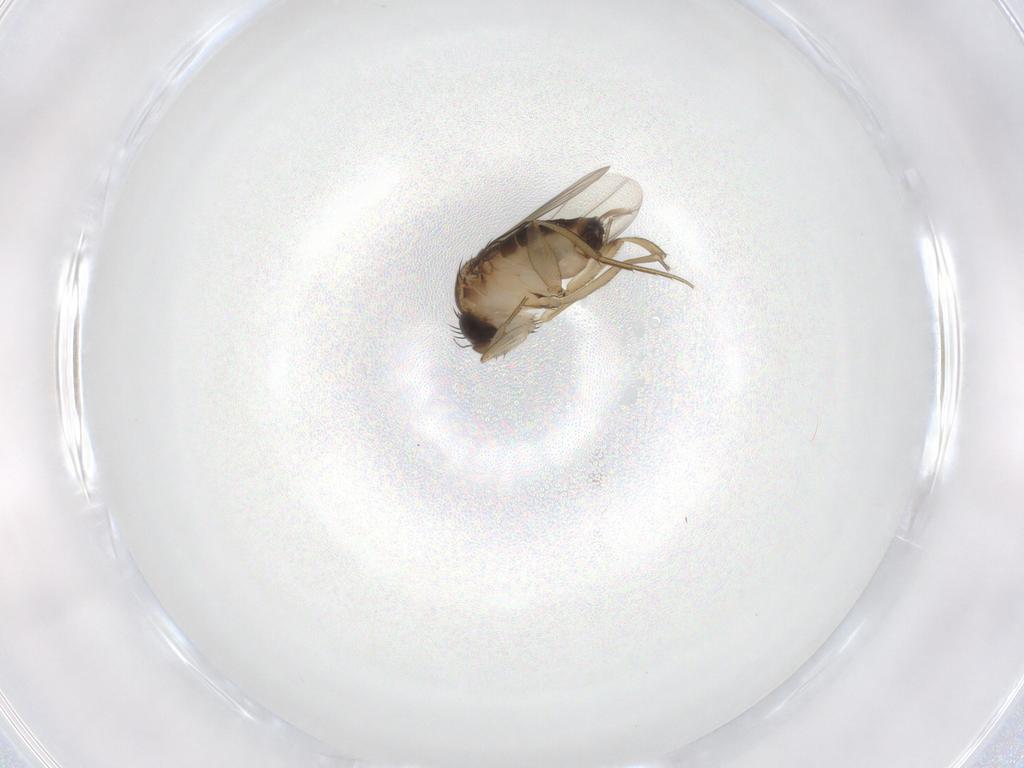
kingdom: Animalia
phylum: Arthropoda
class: Insecta
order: Diptera
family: Phoridae
